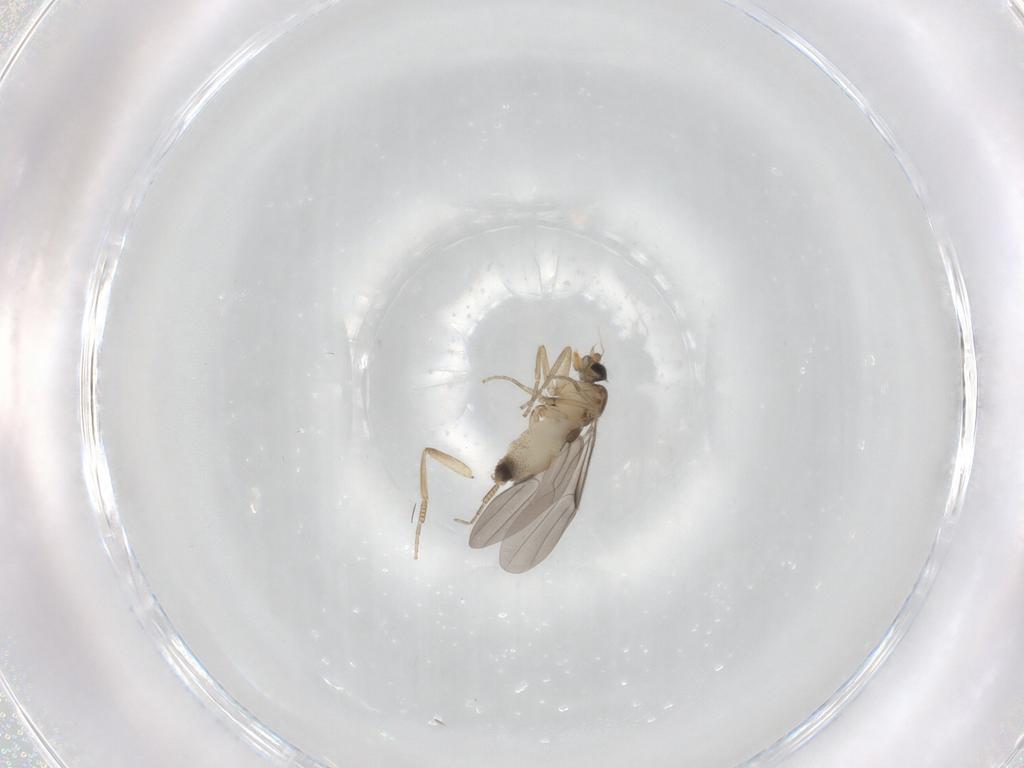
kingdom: Animalia
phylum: Arthropoda
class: Insecta
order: Diptera
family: Phoridae
